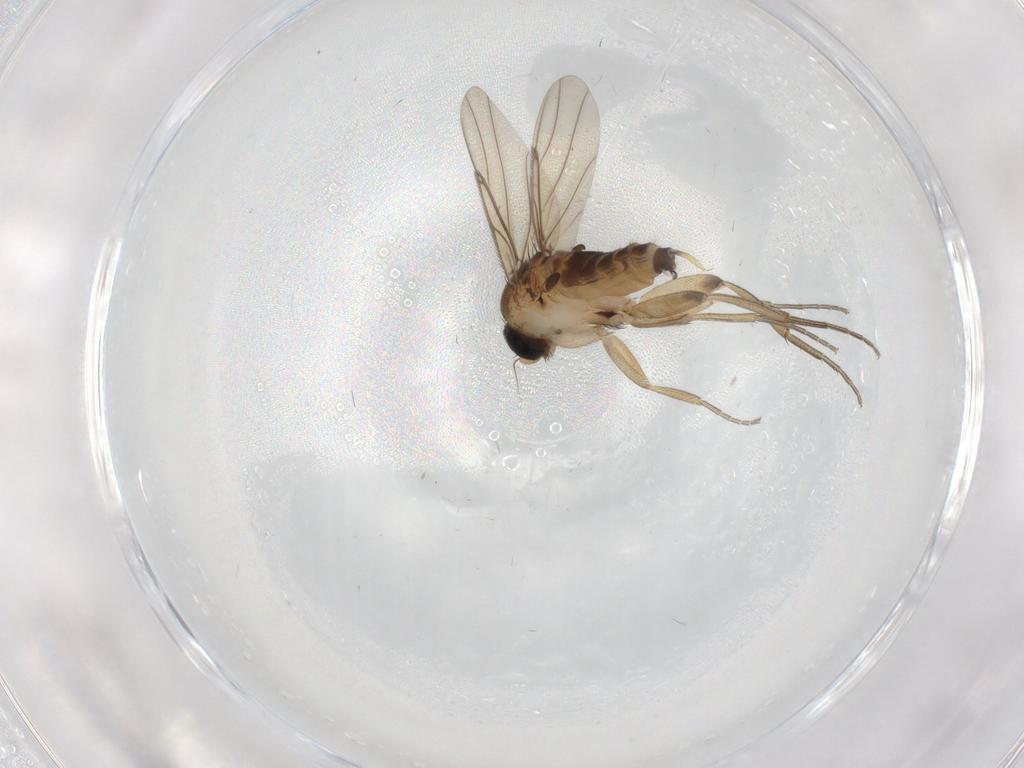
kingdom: Animalia
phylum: Arthropoda
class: Insecta
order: Diptera
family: Phoridae
